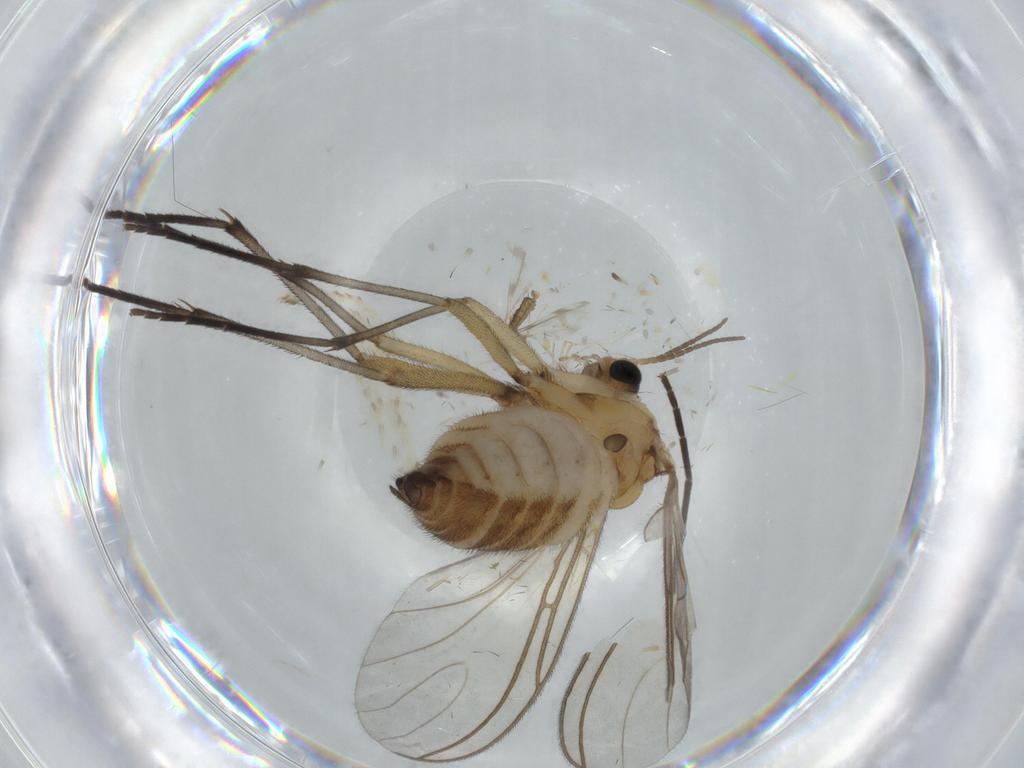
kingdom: Animalia
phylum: Arthropoda
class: Insecta
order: Diptera
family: Sciaridae
